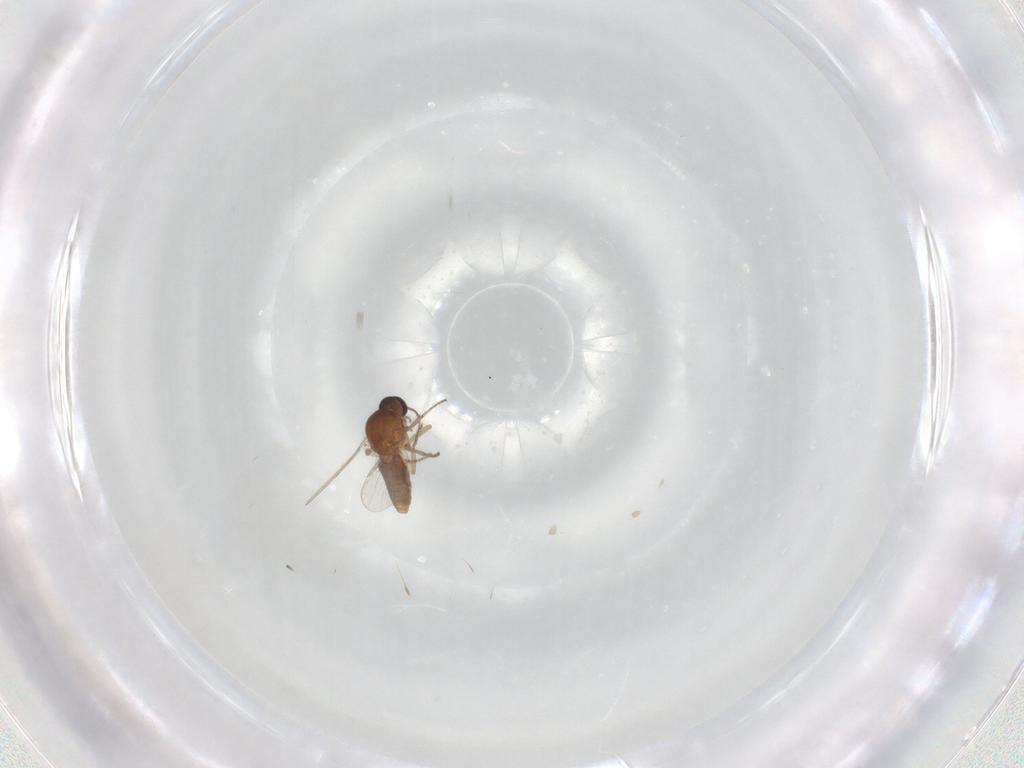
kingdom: Animalia
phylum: Arthropoda
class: Insecta
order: Diptera
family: Ceratopogonidae
